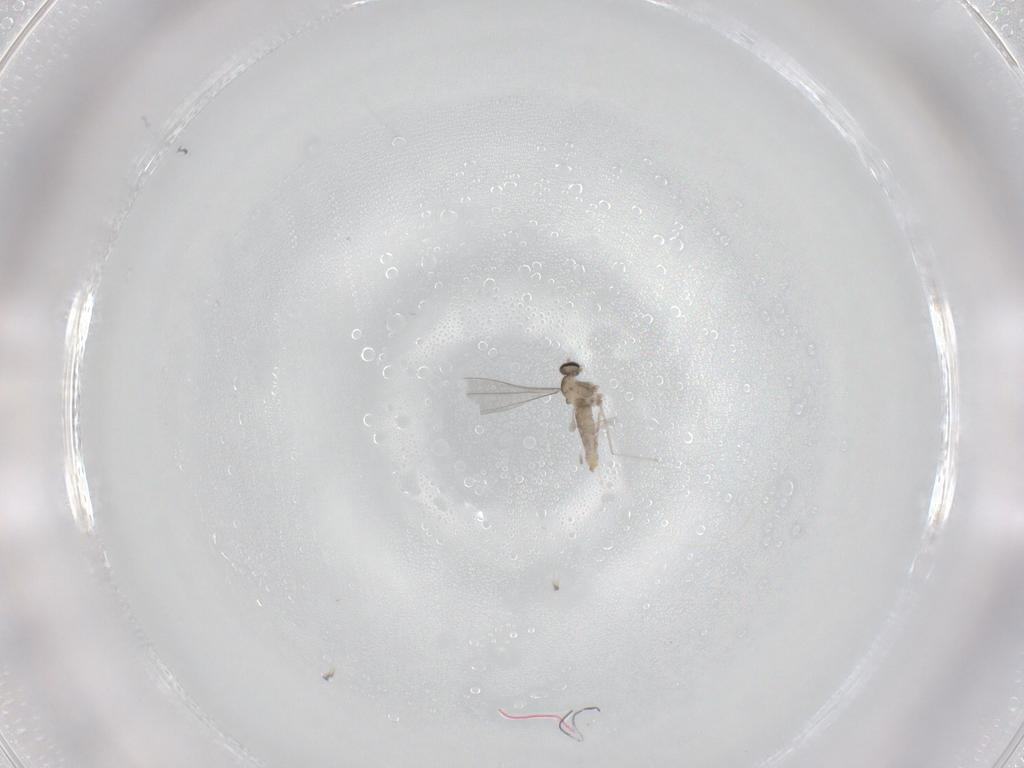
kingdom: Animalia
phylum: Arthropoda
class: Insecta
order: Diptera
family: Cecidomyiidae
